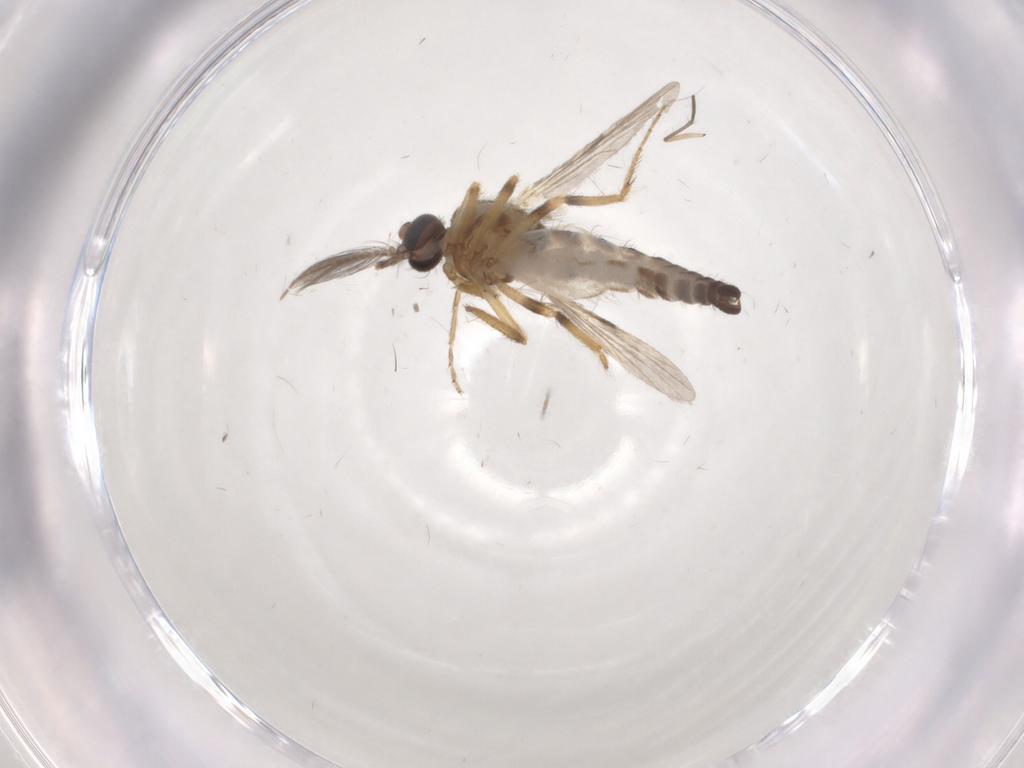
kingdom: Animalia
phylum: Arthropoda
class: Insecta
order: Diptera
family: Ceratopogonidae
